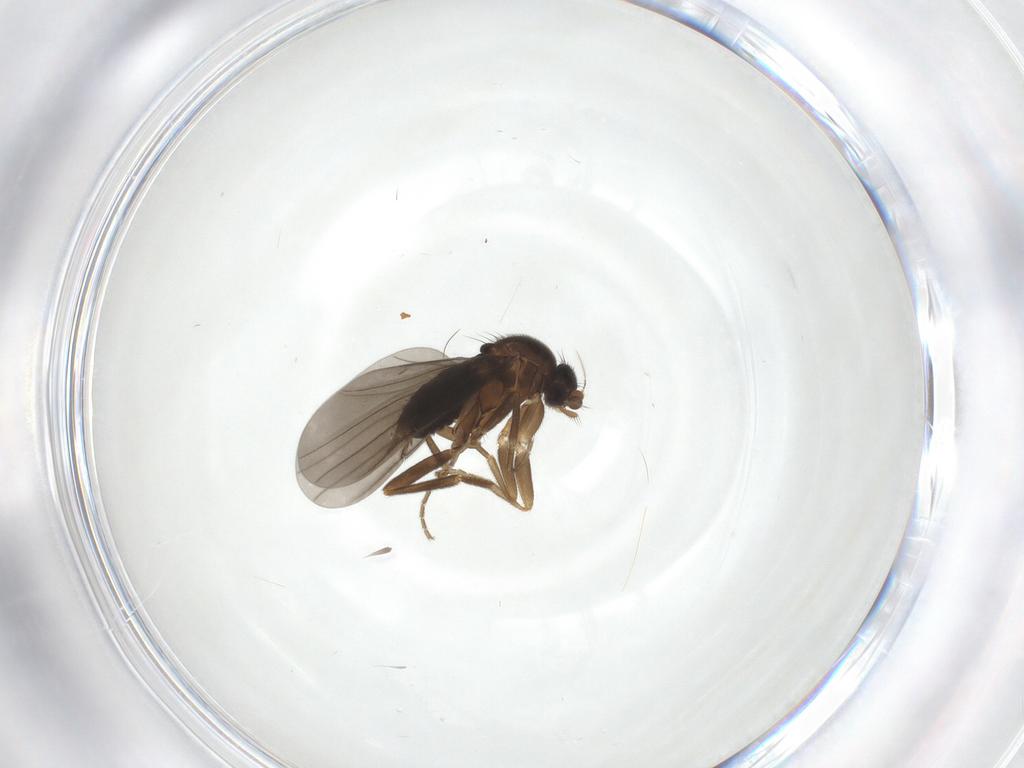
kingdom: Animalia
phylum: Arthropoda
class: Insecta
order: Diptera
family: Phoridae
